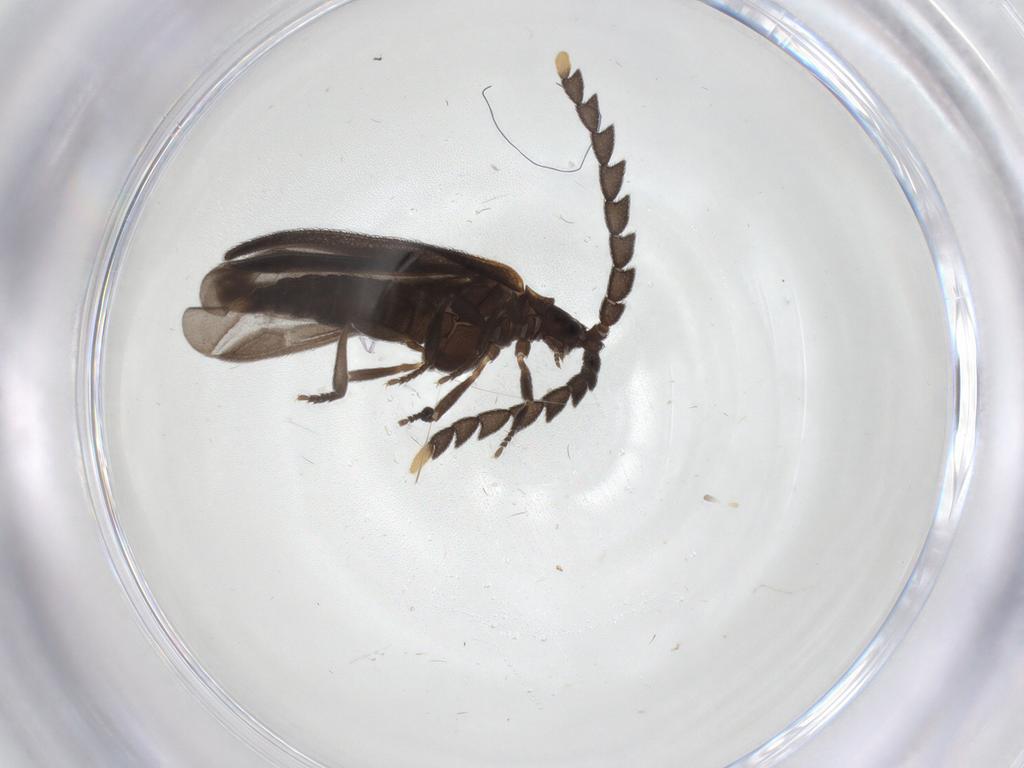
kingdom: Animalia
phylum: Arthropoda
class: Insecta
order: Coleoptera
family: Lycidae
